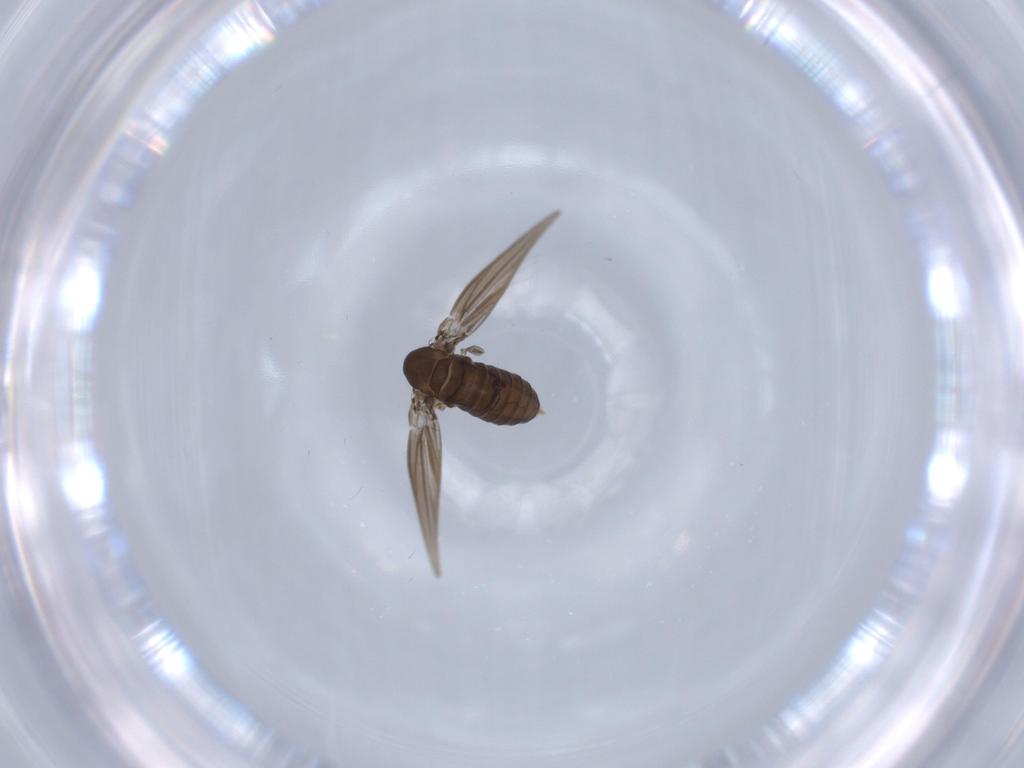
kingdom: Animalia
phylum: Arthropoda
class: Insecta
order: Diptera
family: Psychodidae
